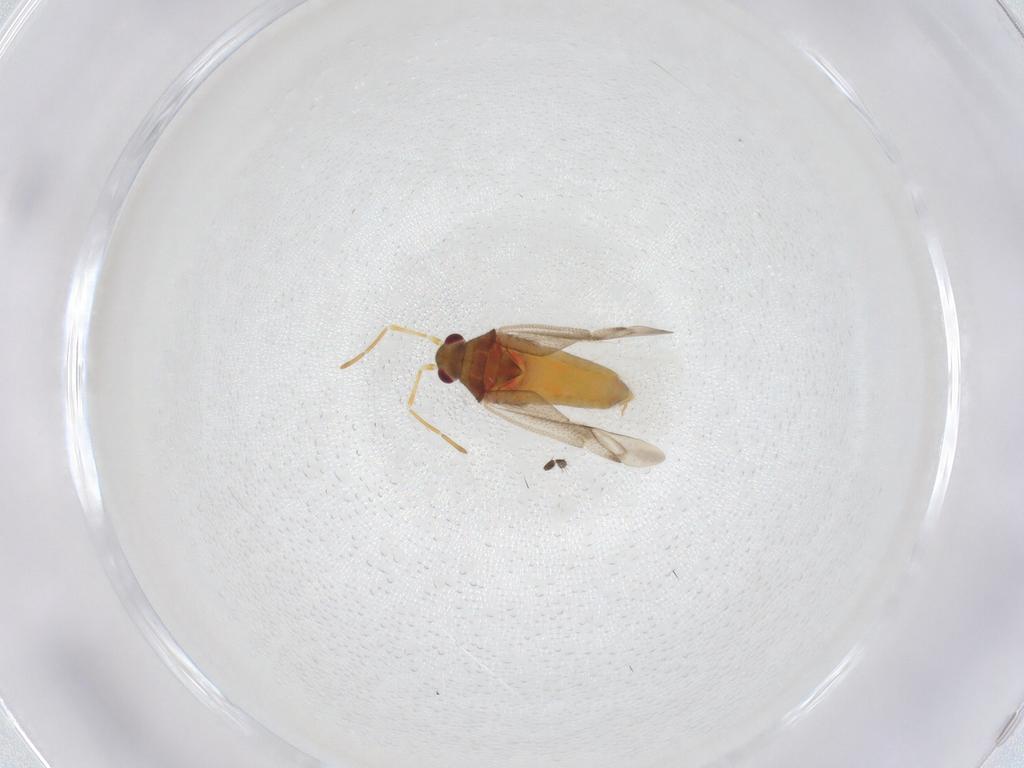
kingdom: Animalia
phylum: Arthropoda
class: Insecta
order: Hemiptera
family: Miridae
